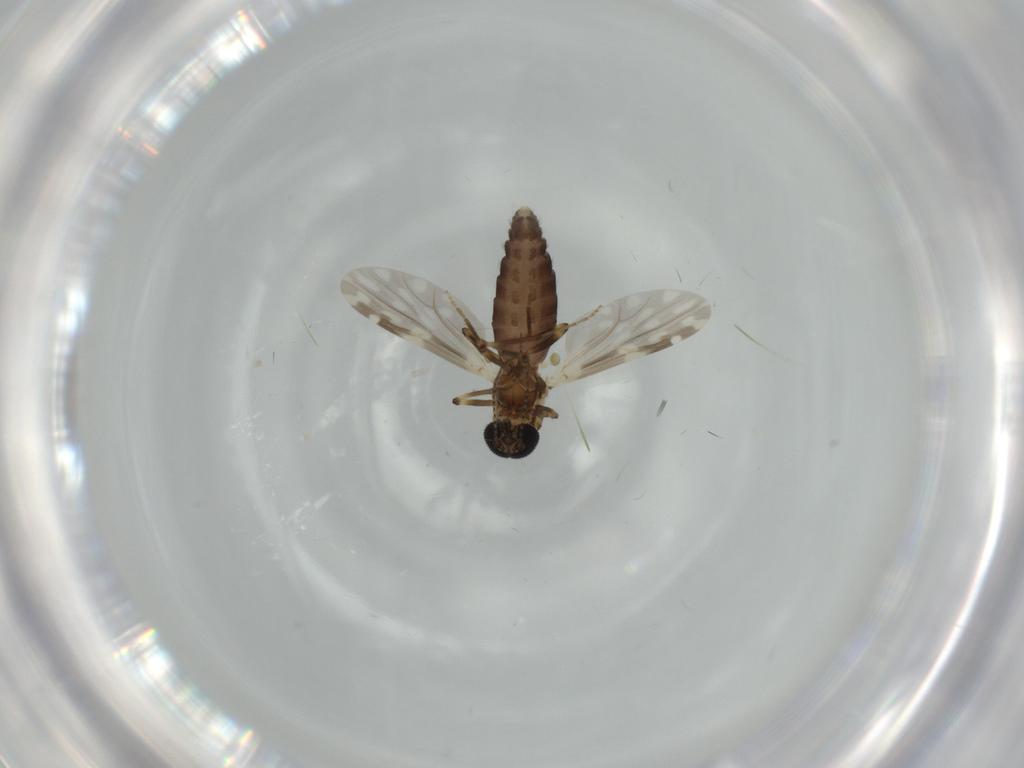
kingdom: Animalia
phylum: Arthropoda
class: Insecta
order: Diptera
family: Ceratopogonidae
